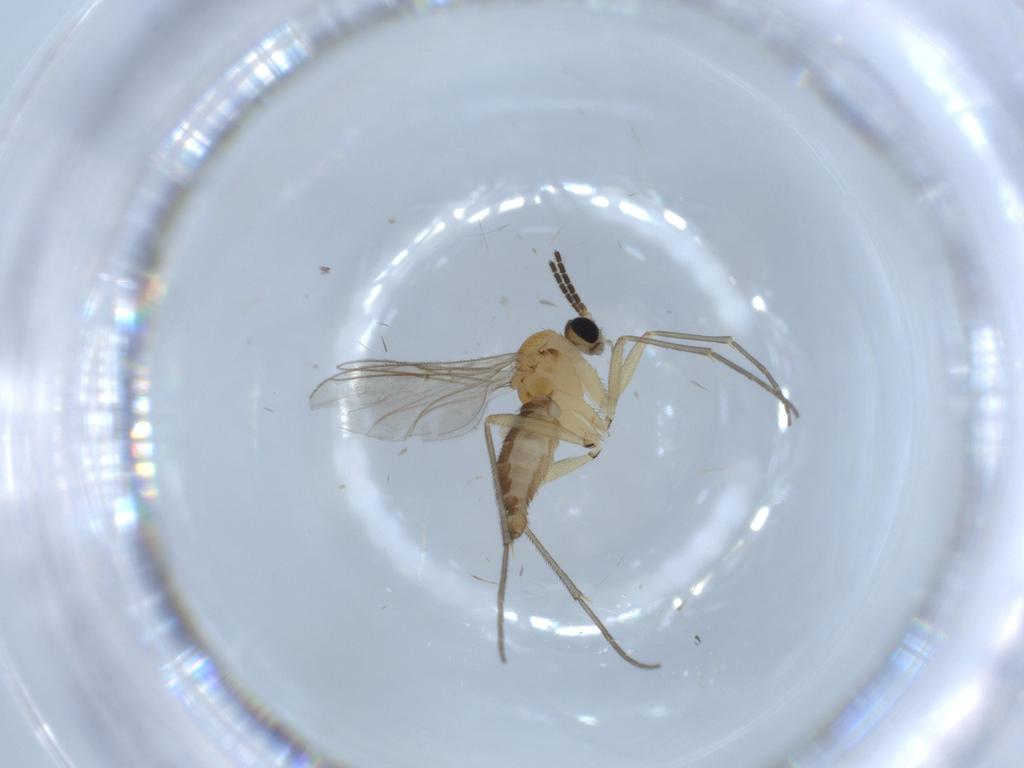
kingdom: Animalia
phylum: Arthropoda
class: Insecta
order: Diptera
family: Sciaridae
